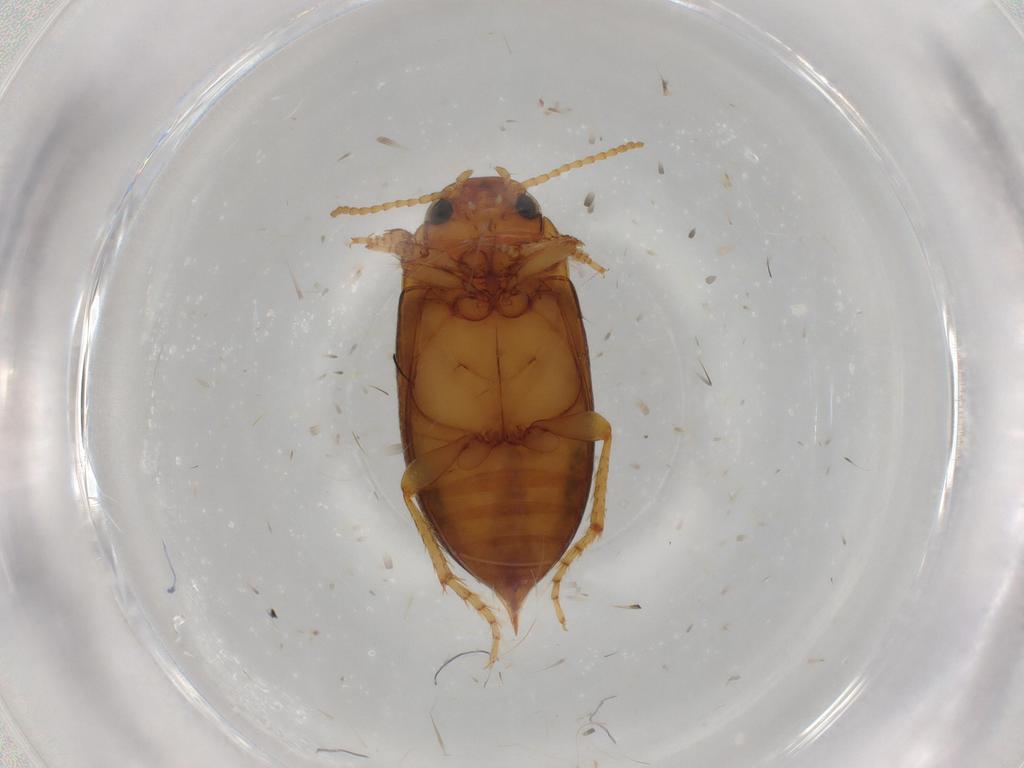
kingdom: Animalia
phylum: Arthropoda
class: Insecta
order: Coleoptera
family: Dytiscidae
